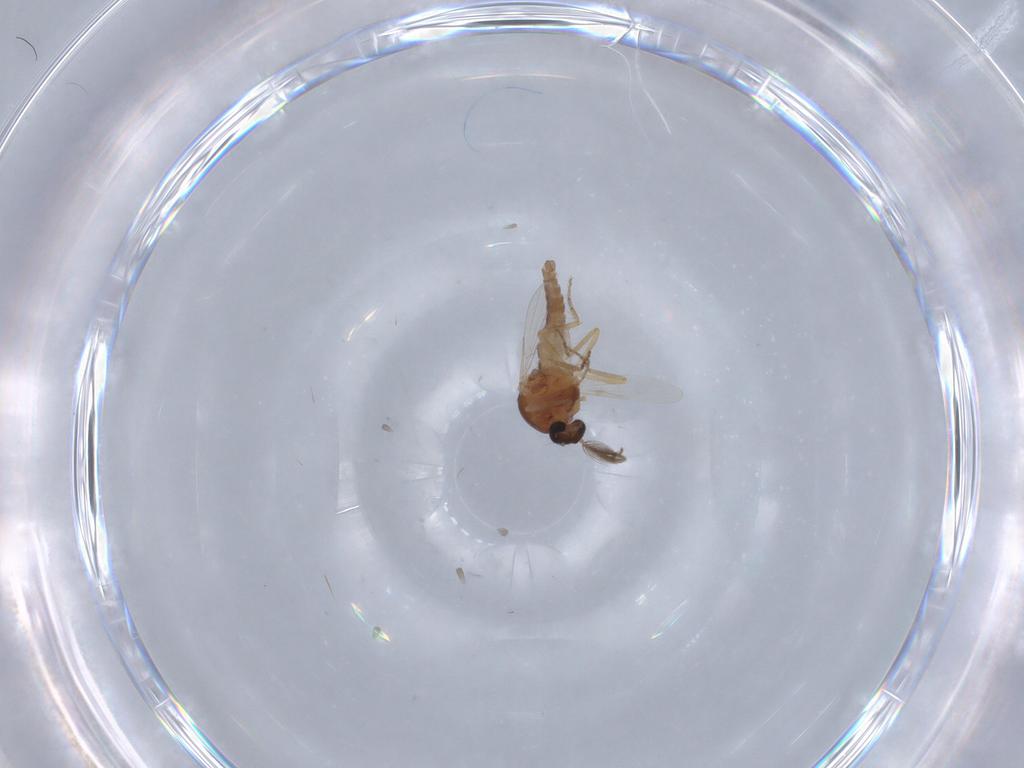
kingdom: Animalia
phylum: Arthropoda
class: Insecta
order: Diptera
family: Ceratopogonidae
